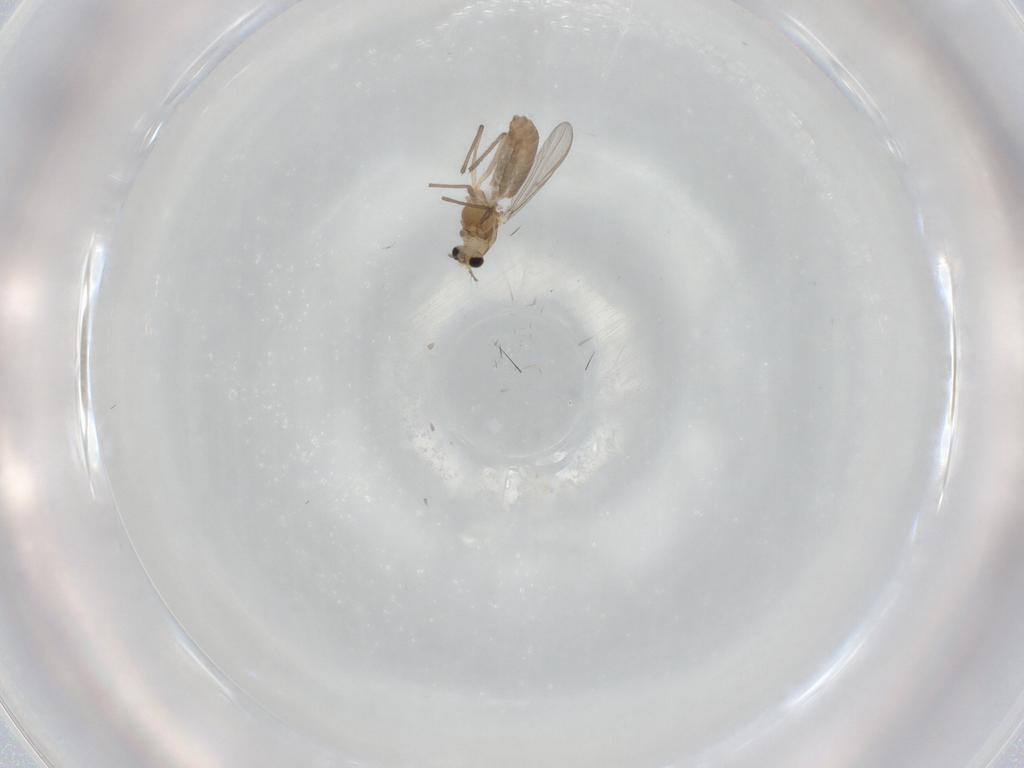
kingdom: Animalia
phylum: Arthropoda
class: Insecta
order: Diptera
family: Chironomidae
